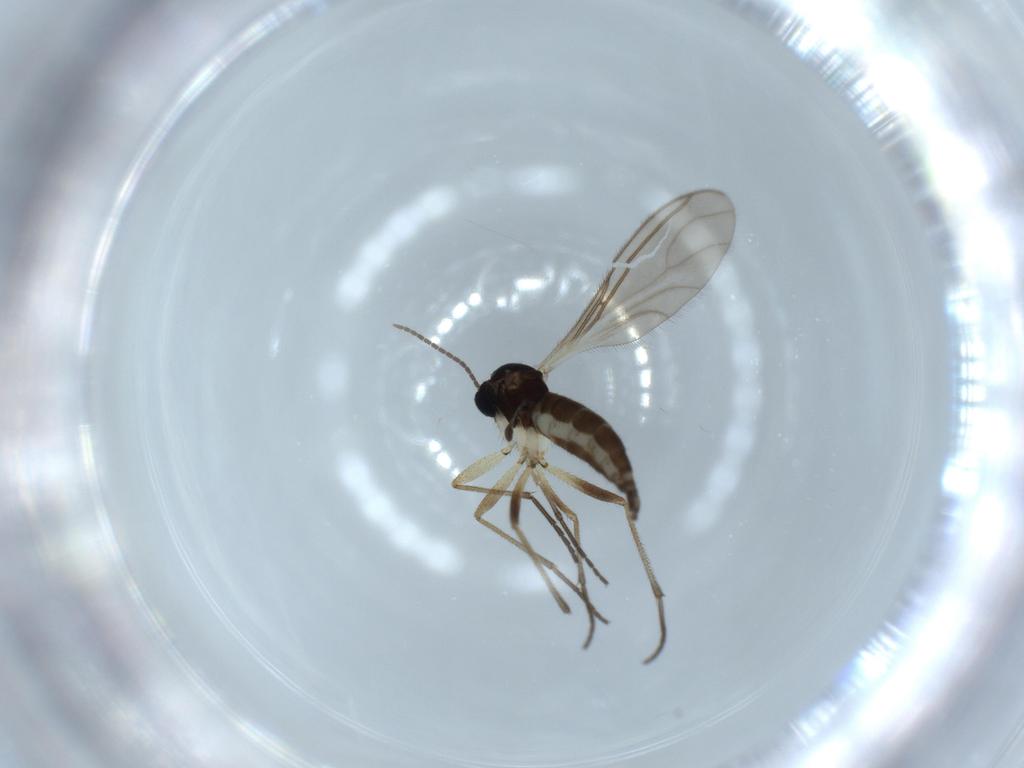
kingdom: Animalia
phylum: Arthropoda
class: Insecta
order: Diptera
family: Sciaridae
